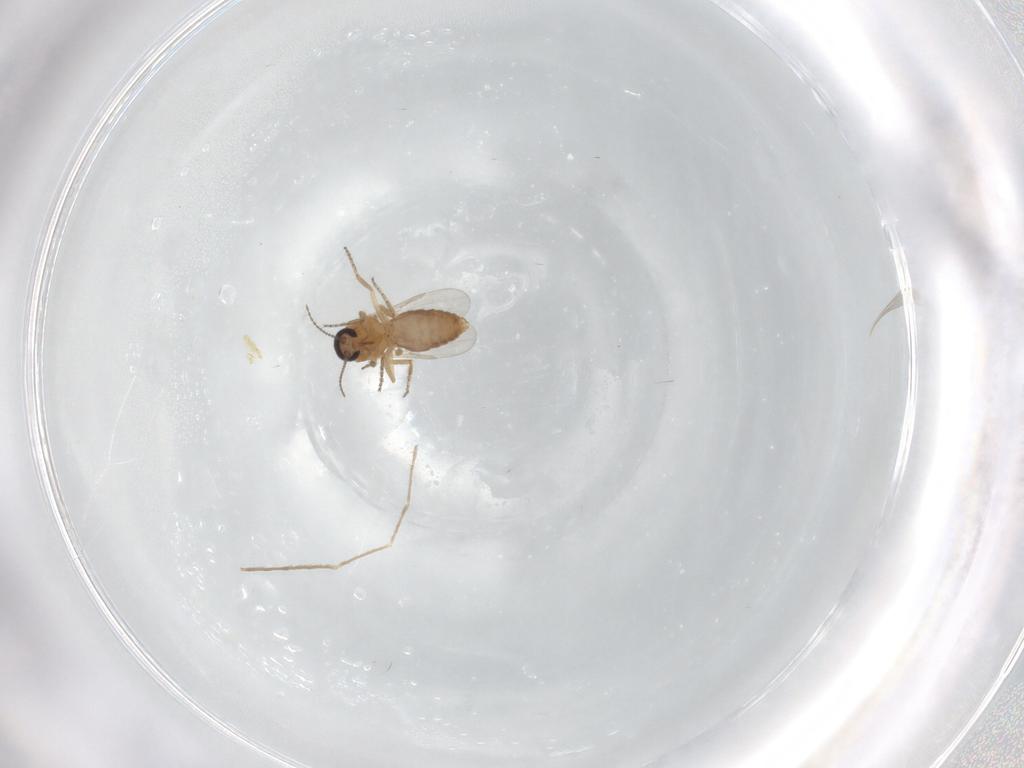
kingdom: Animalia
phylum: Arthropoda
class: Insecta
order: Diptera
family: Ceratopogonidae
